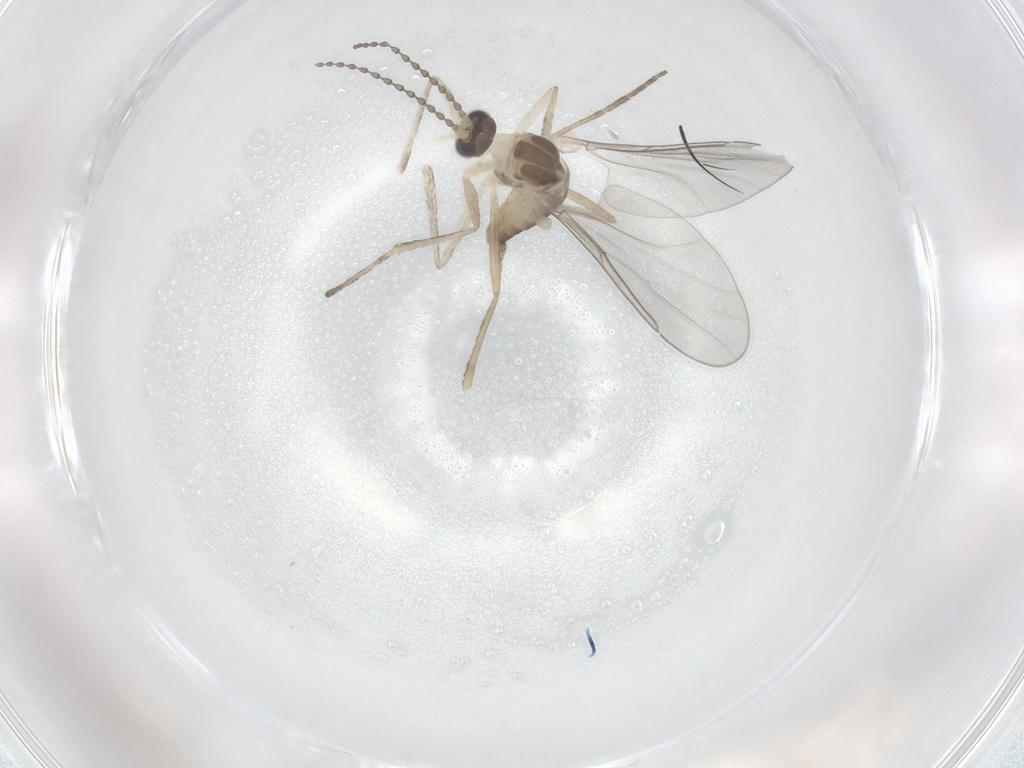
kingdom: Animalia
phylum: Arthropoda
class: Insecta
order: Diptera
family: Cecidomyiidae
